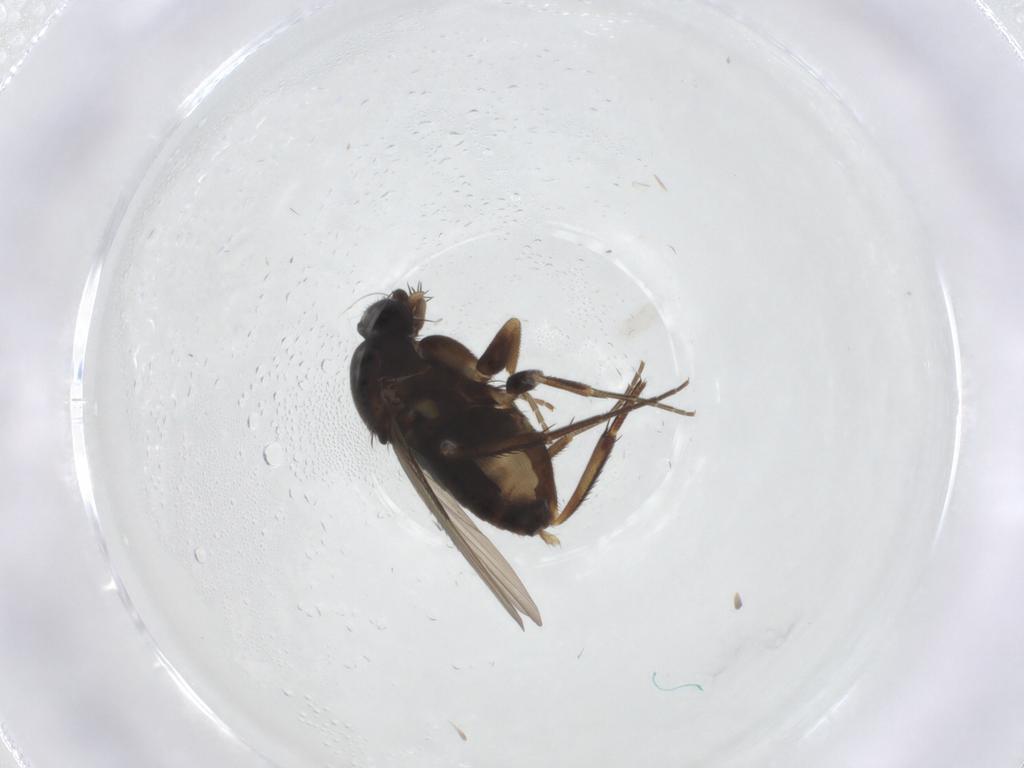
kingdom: Animalia
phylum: Arthropoda
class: Insecta
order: Diptera
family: Phoridae
